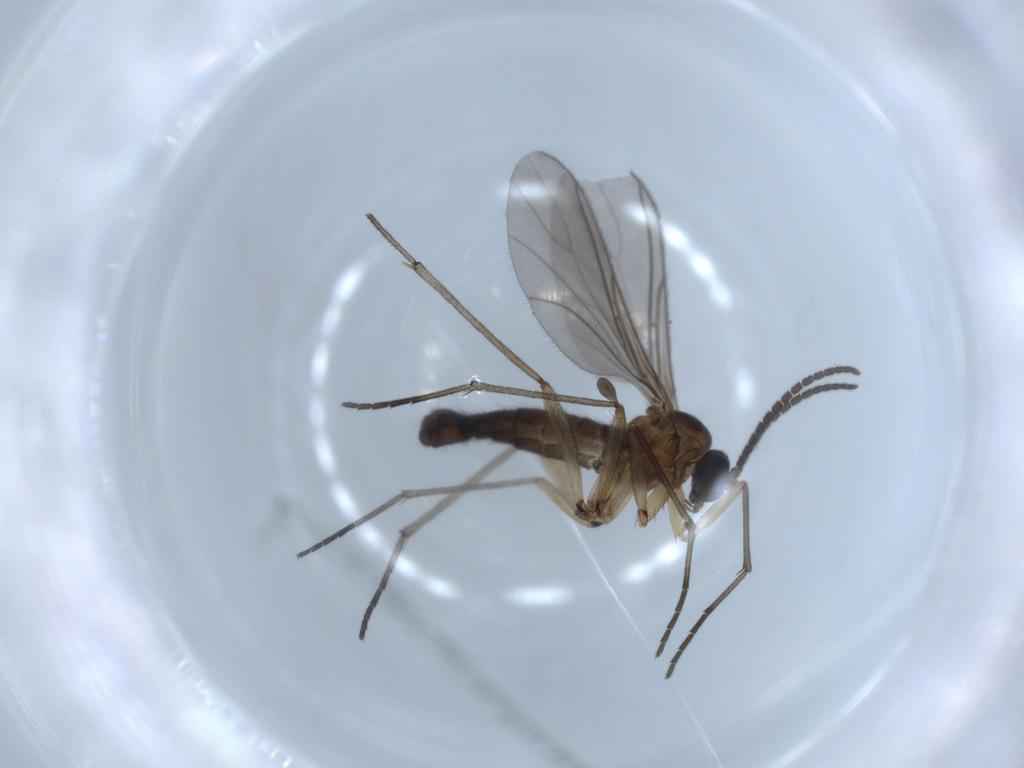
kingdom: Animalia
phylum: Arthropoda
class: Insecta
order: Diptera
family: Sciaridae
